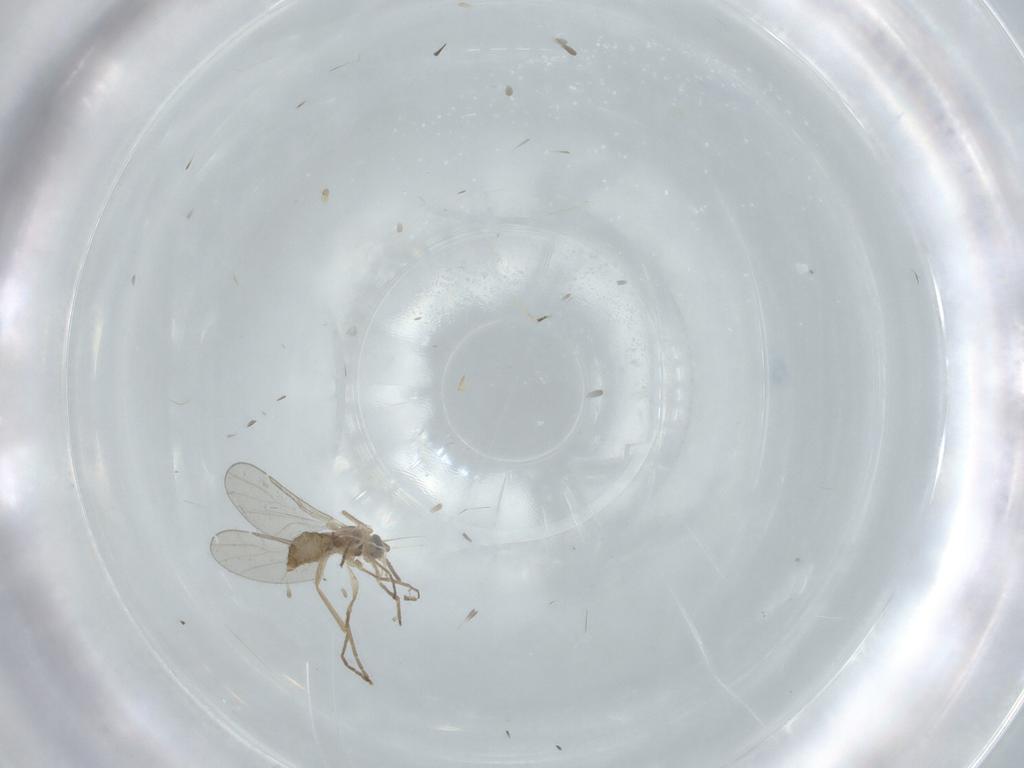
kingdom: Animalia
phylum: Arthropoda
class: Insecta
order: Diptera
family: Cecidomyiidae
